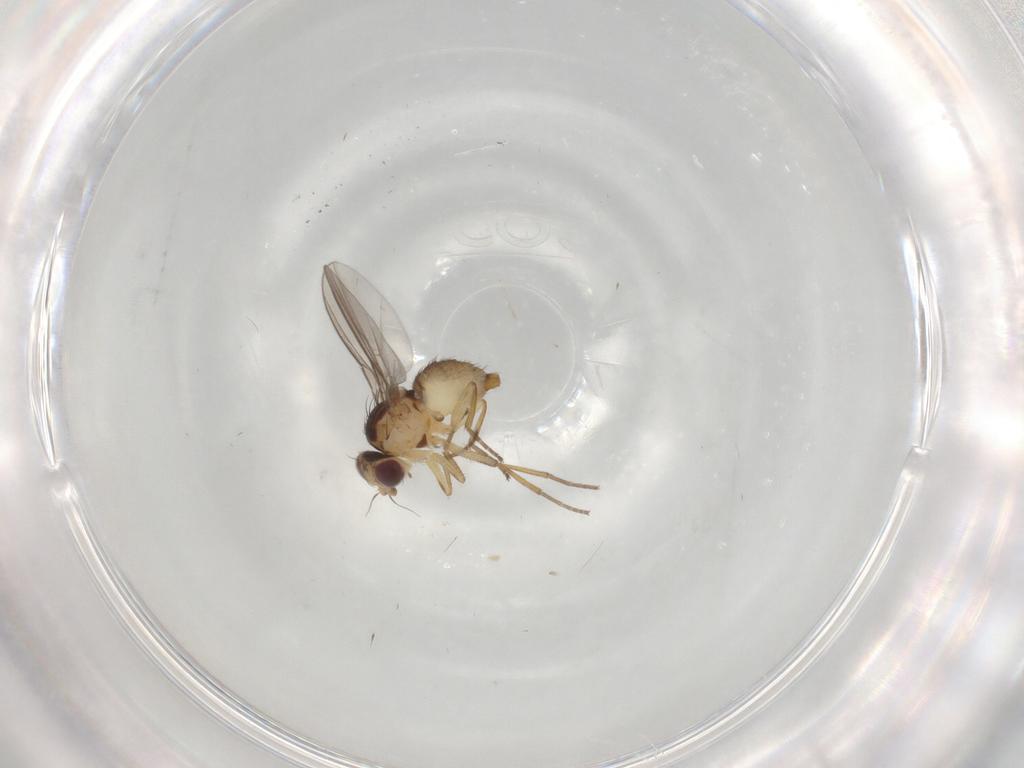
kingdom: Animalia
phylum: Arthropoda
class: Insecta
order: Diptera
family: Agromyzidae
